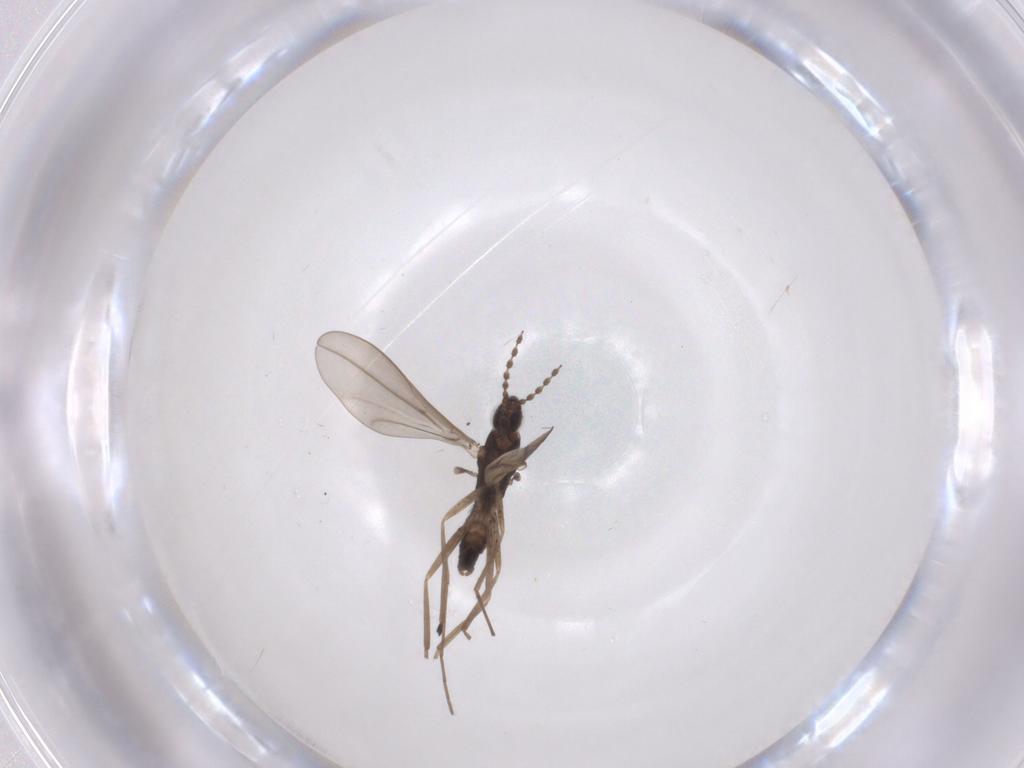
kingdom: Animalia
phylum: Arthropoda
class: Insecta
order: Diptera
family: Cecidomyiidae
